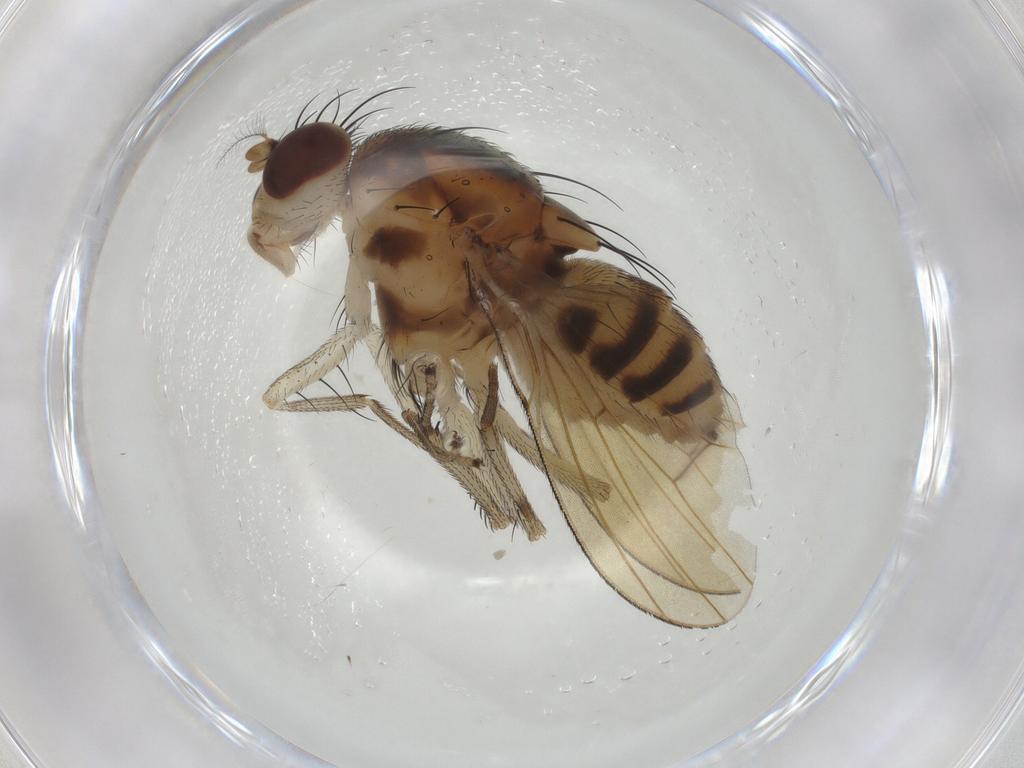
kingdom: Animalia
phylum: Arthropoda
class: Insecta
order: Diptera
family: Lauxaniidae
